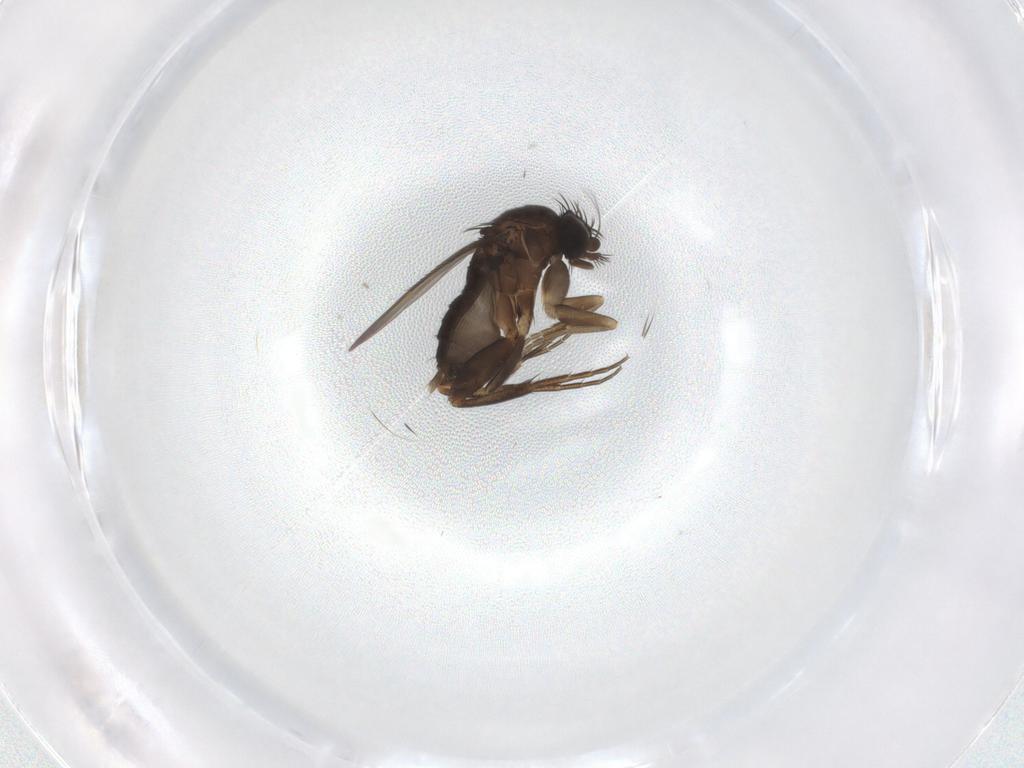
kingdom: Animalia
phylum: Arthropoda
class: Insecta
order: Diptera
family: Phoridae
